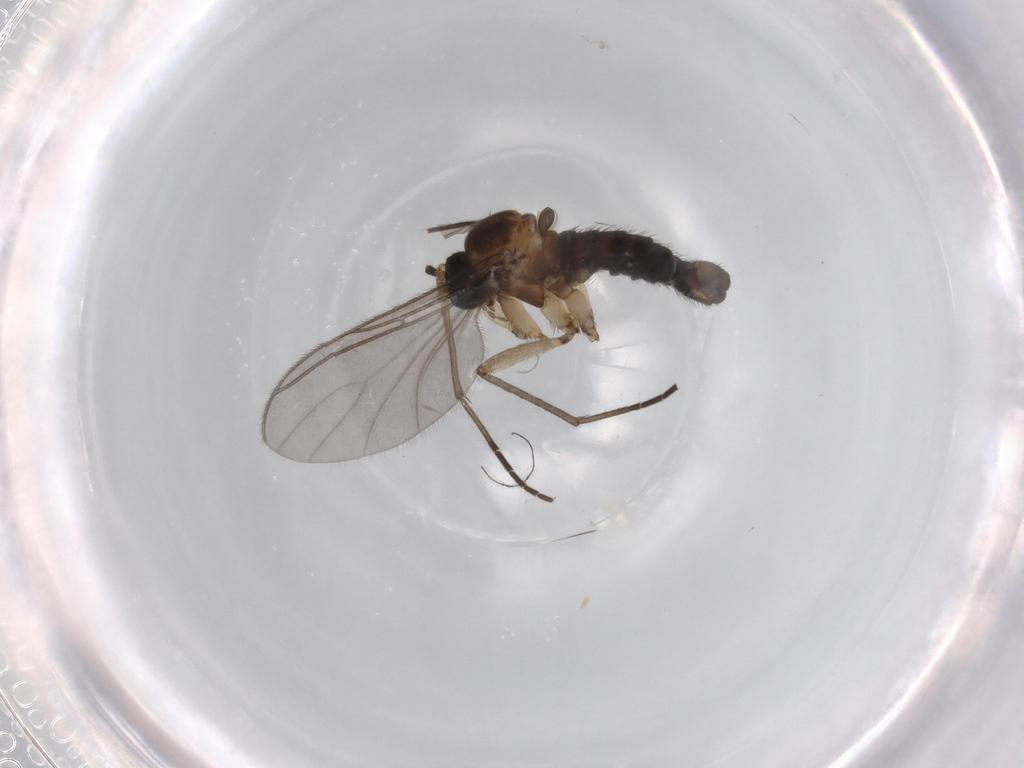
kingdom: Animalia
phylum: Arthropoda
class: Insecta
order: Diptera
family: Sciaridae
